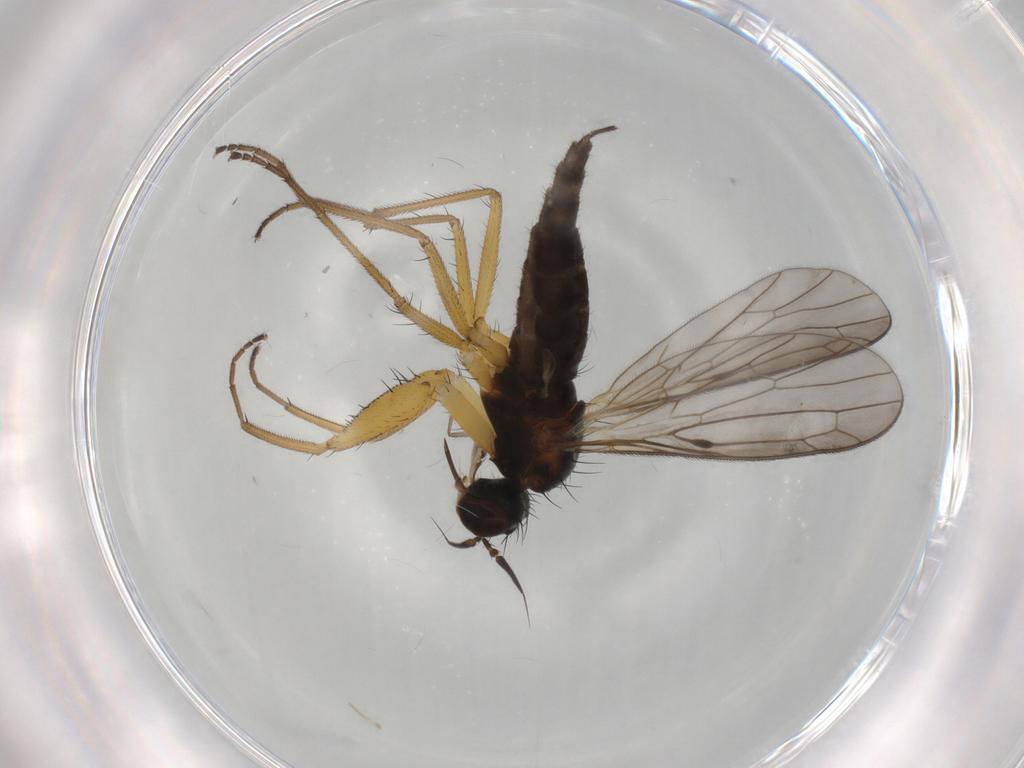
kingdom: Animalia
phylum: Arthropoda
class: Insecta
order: Diptera
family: Chironomidae
